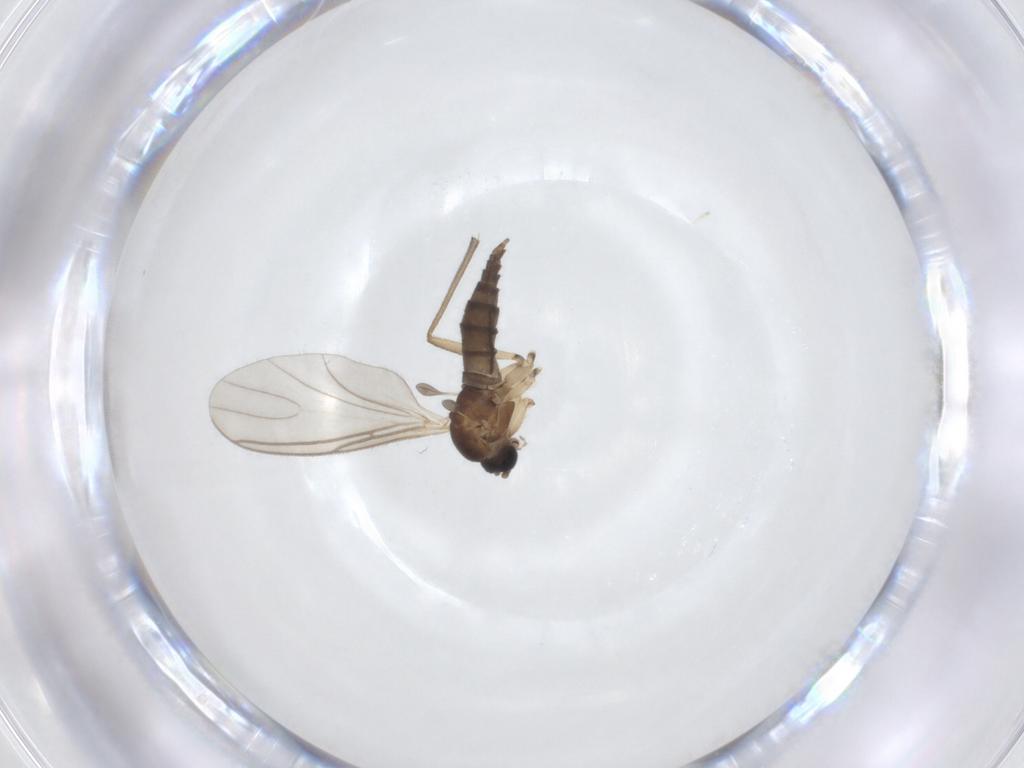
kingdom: Animalia
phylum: Arthropoda
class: Insecta
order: Diptera
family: Sciaridae
